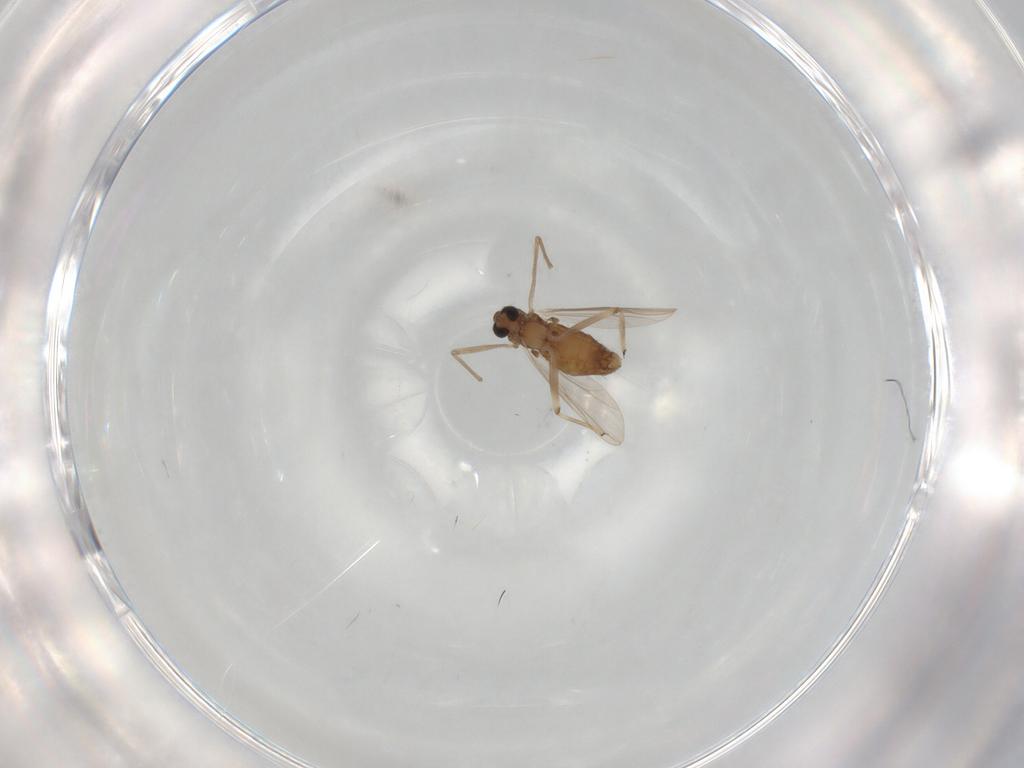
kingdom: Animalia
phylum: Arthropoda
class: Insecta
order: Diptera
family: Chironomidae
